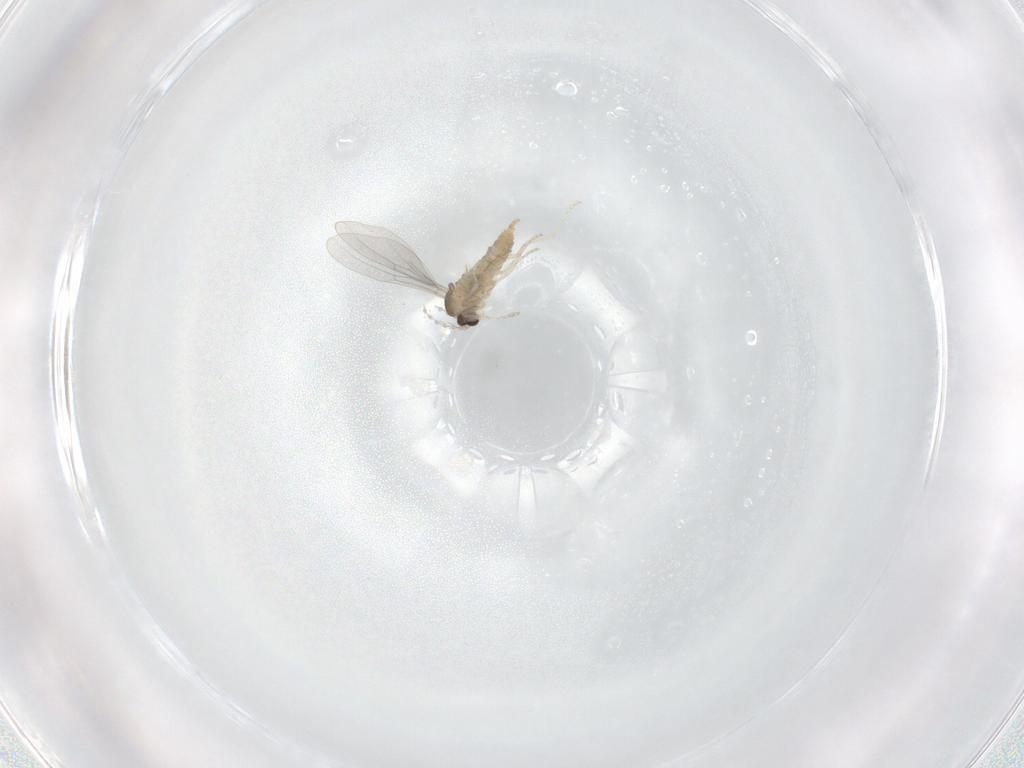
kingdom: Animalia
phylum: Arthropoda
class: Insecta
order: Diptera
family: Cecidomyiidae
